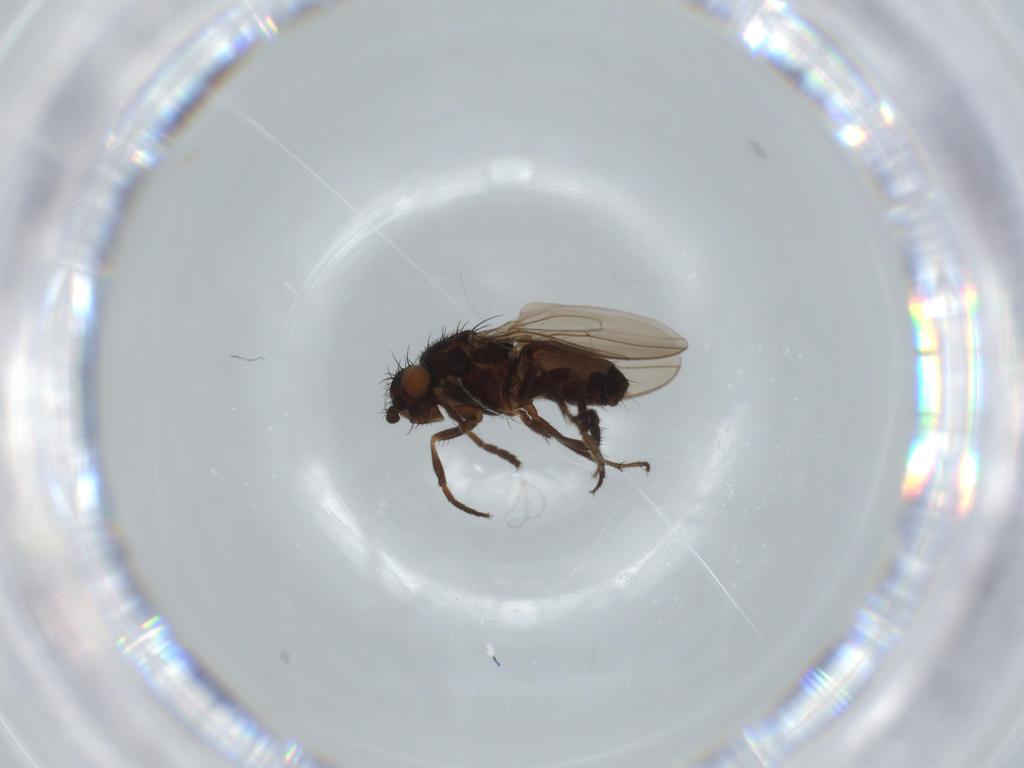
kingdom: Animalia
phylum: Arthropoda
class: Insecta
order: Diptera
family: Sphaeroceridae
